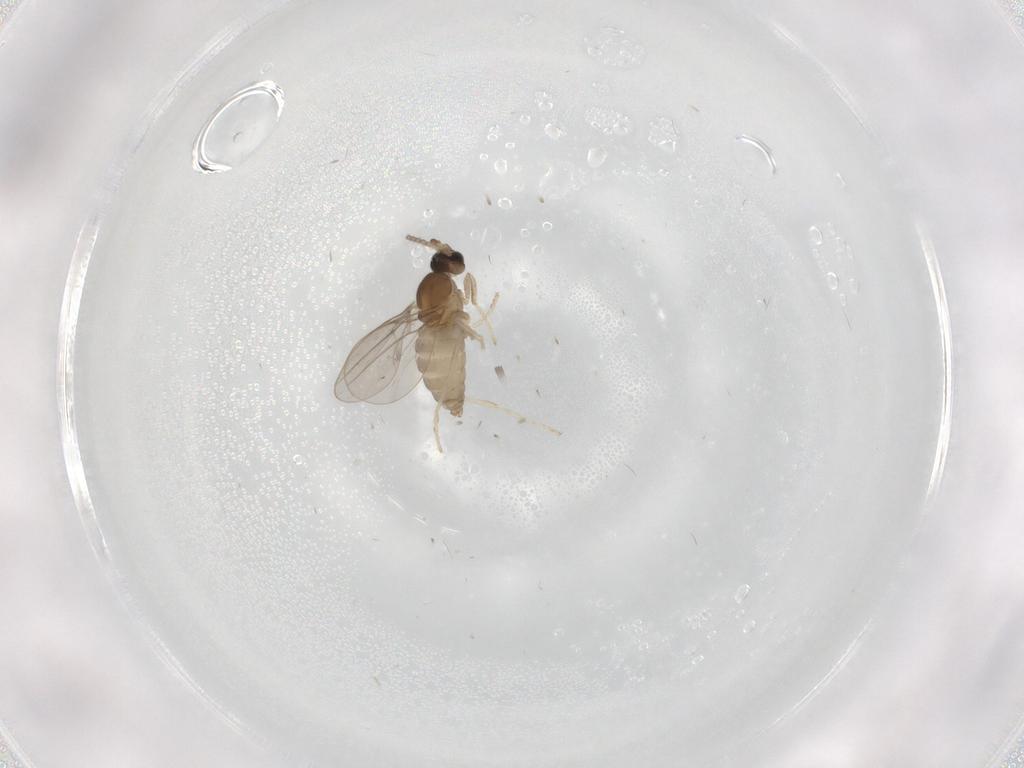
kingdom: Animalia
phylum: Arthropoda
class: Insecta
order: Diptera
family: Cecidomyiidae
